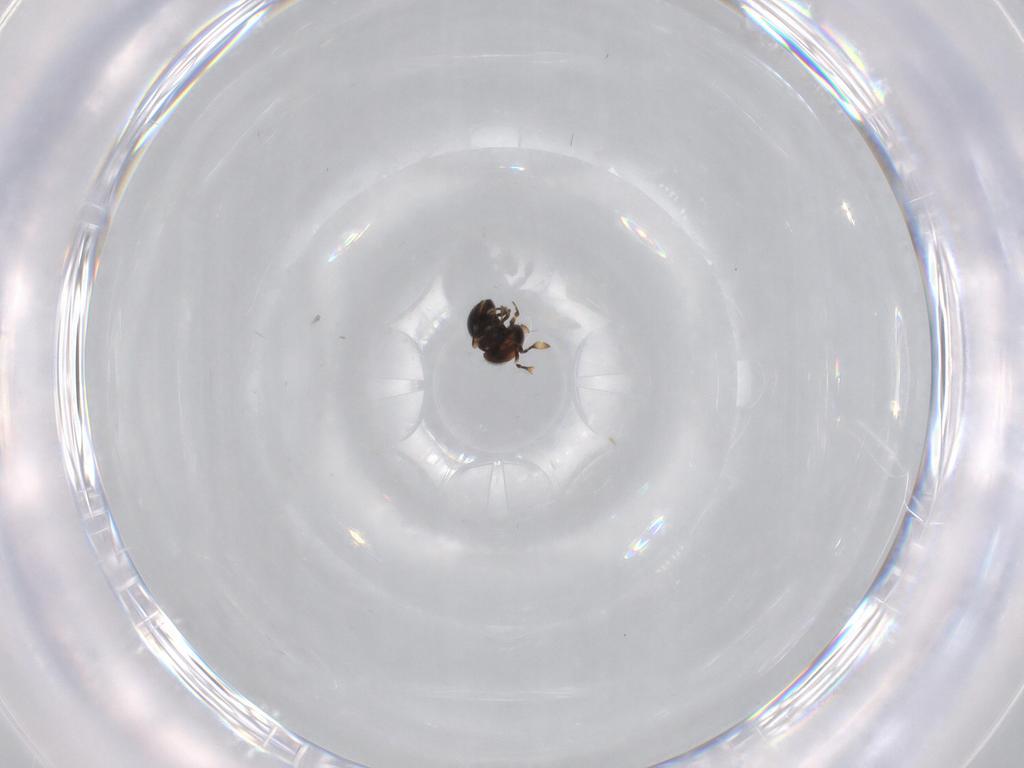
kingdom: Animalia
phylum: Arthropoda
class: Insecta
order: Hymenoptera
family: Scelionidae
